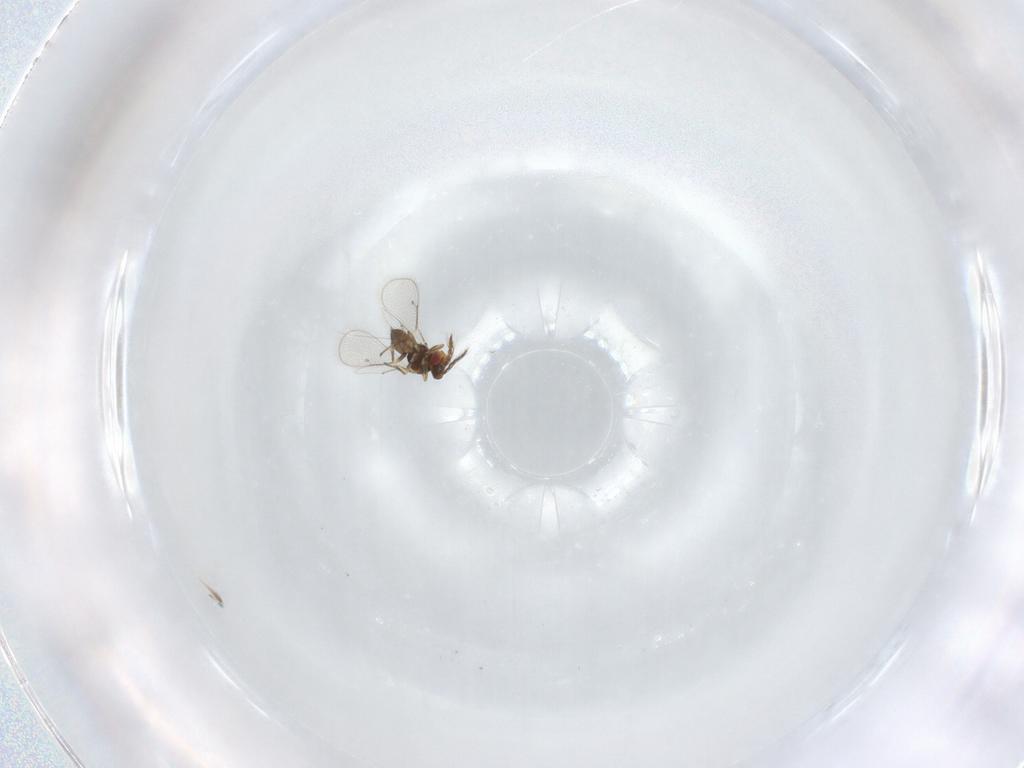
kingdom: Animalia
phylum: Arthropoda
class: Insecta
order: Hymenoptera
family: Eulophidae
